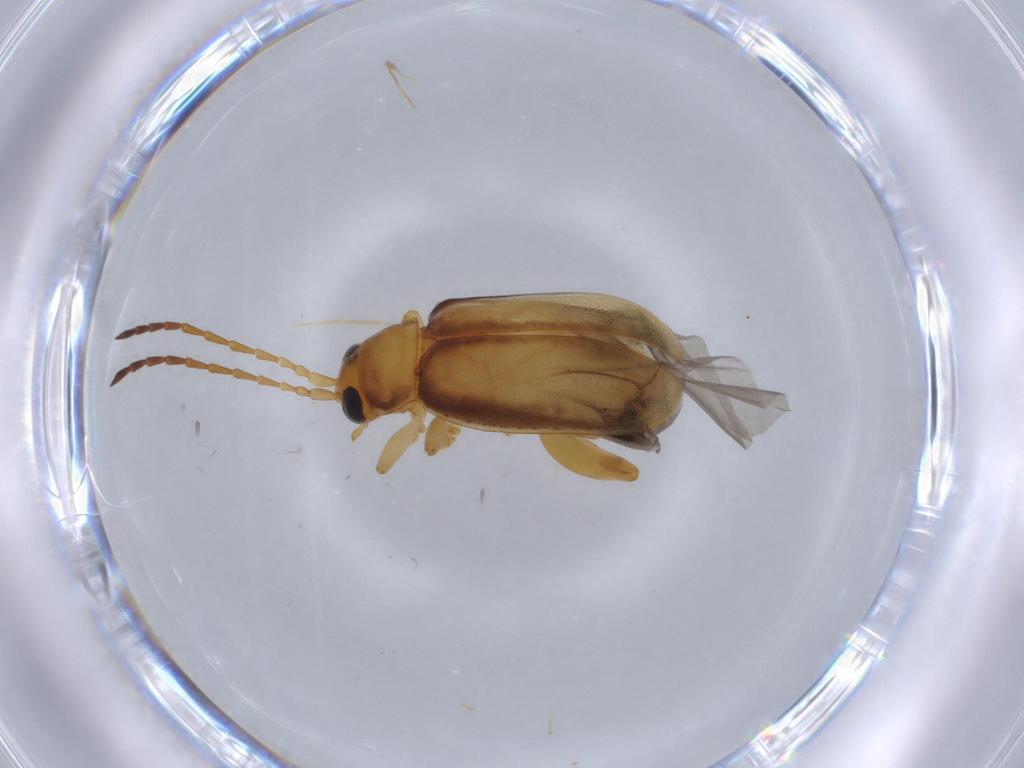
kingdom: Animalia
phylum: Arthropoda
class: Insecta
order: Coleoptera
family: Chrysomelidae
